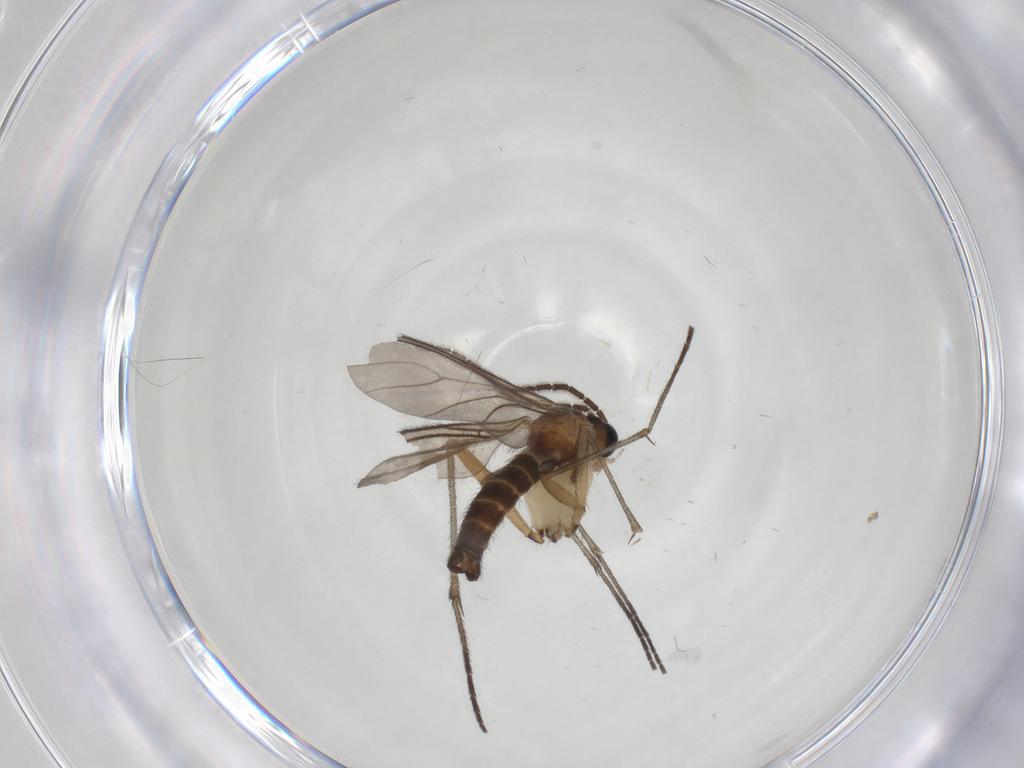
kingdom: Animalia
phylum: Arthropoda
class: Insecta
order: Diptera
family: Sciaridae
